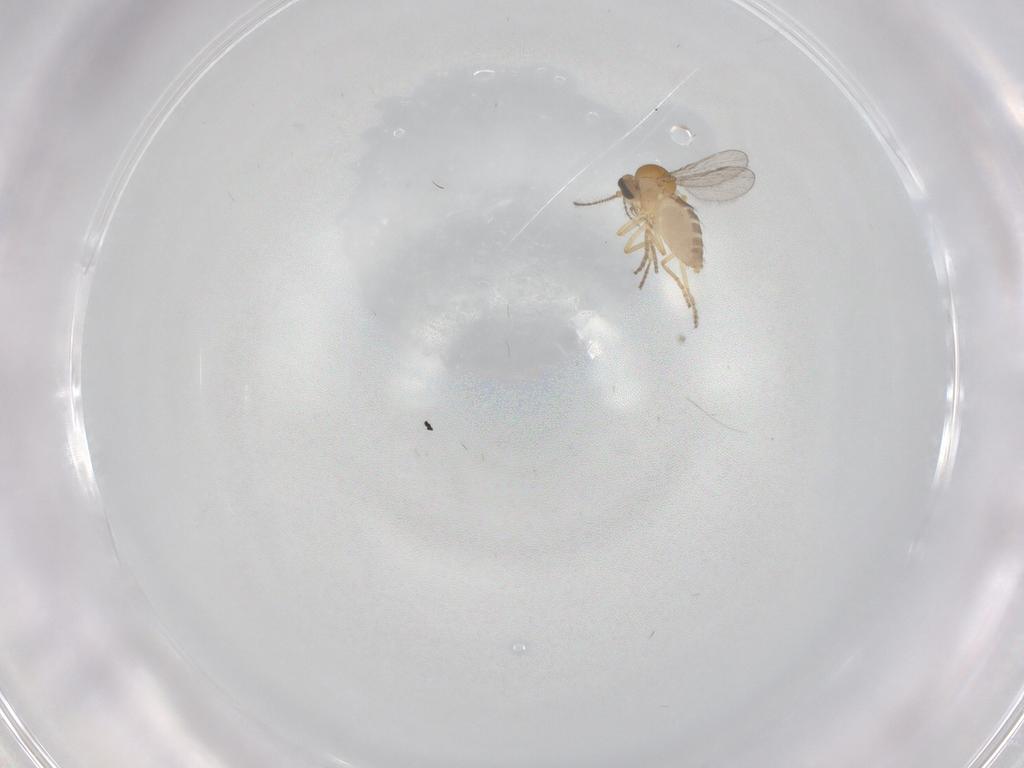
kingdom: Animalia
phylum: Arthropoda
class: Insecta
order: Diptera
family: Ceratopogonidae
